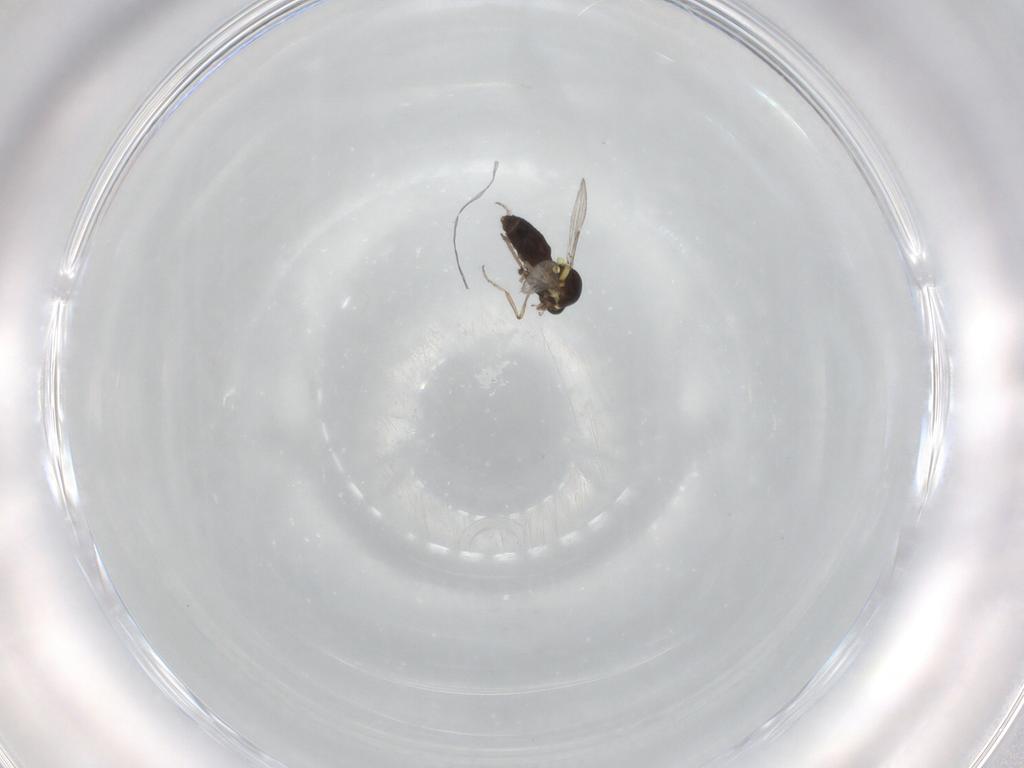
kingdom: Animalia
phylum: Arthropoda
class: Insecta
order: Diptera
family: Ceratopogonidae
